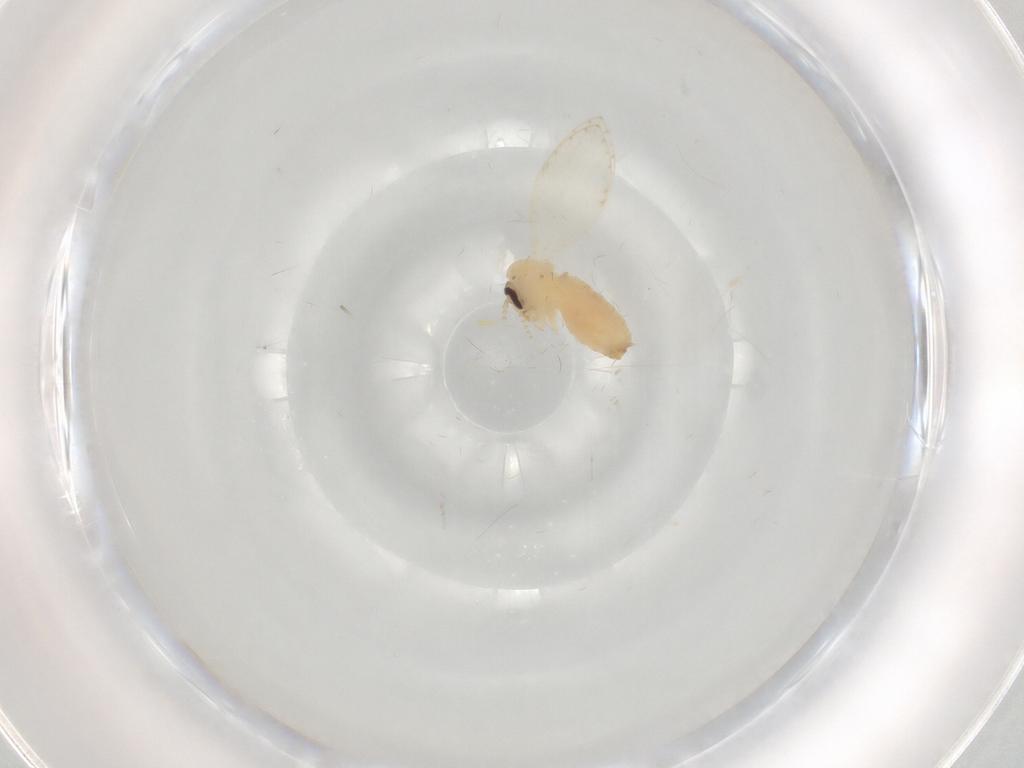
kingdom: Animalia
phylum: Arthropoda
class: Insecta
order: Diptera
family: Psychodidae
